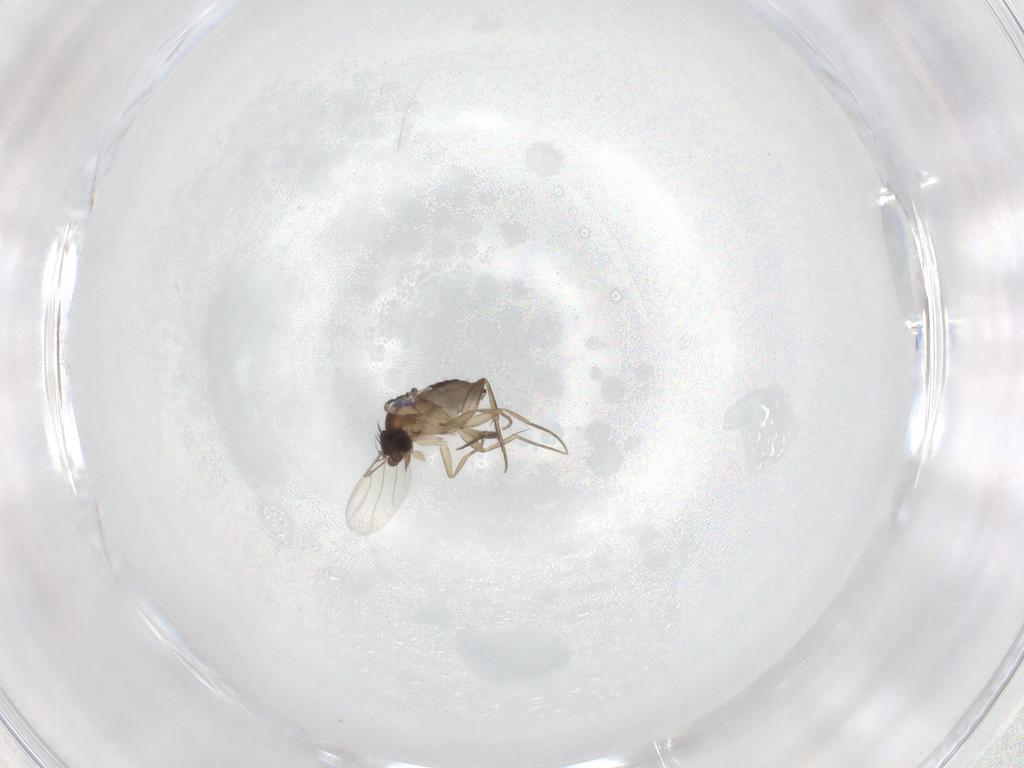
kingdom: Animalia
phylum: Arthropoda
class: Insecta
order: Diptera
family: Phoridae
